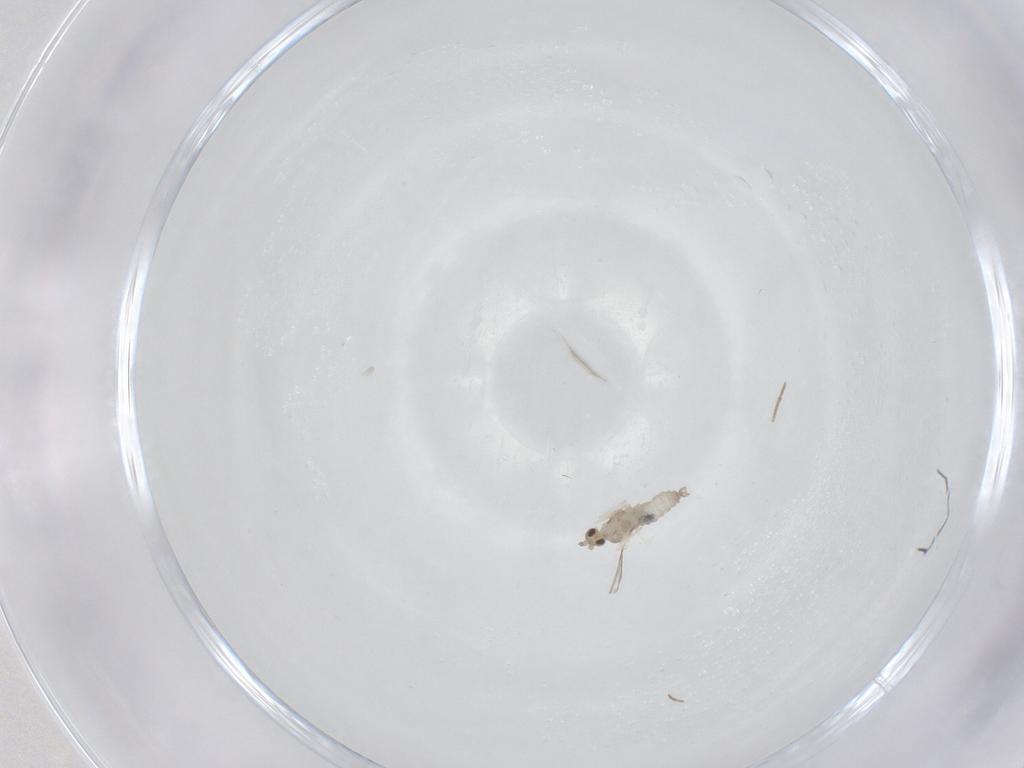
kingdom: Animalia
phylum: Arthropoda
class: Insecta
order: Diptera
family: Cecidomyiidae
